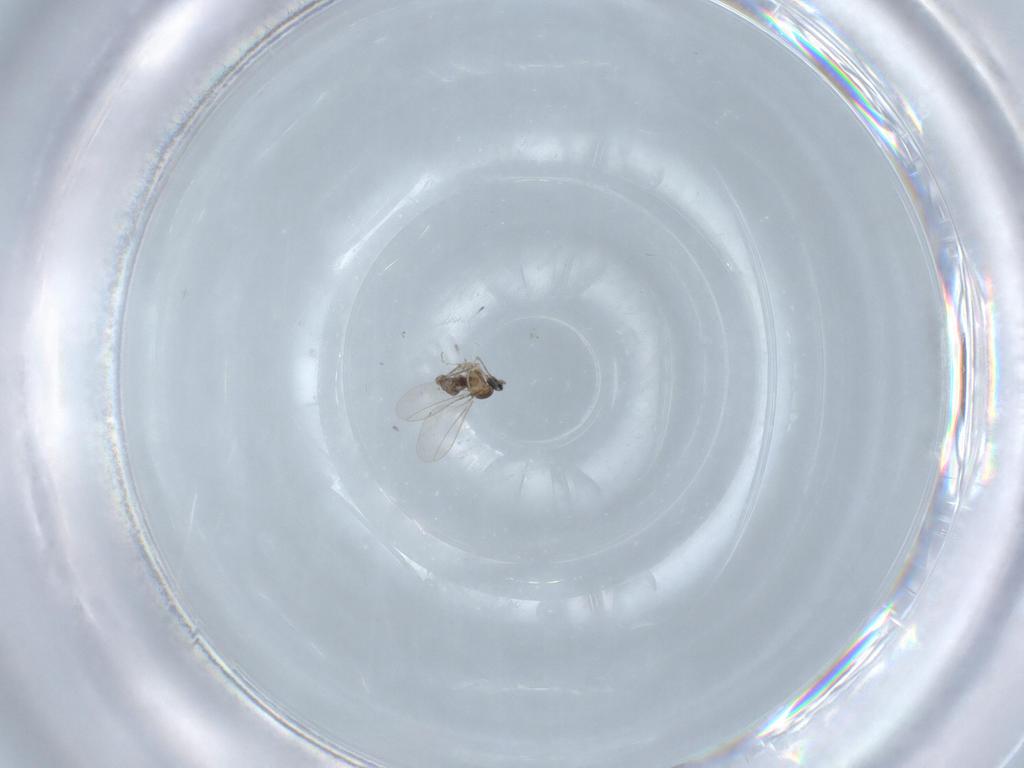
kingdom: Animalia
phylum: Arthropoda
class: Insecta
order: Diptera
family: Cecidomyiidae
